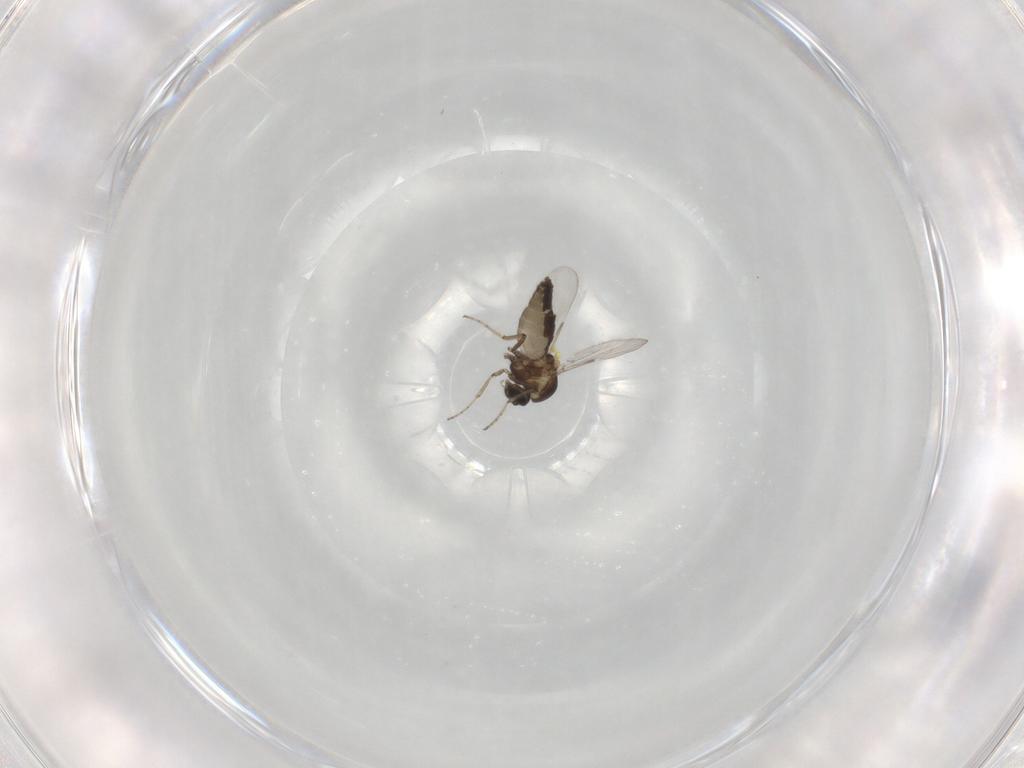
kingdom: Animalia
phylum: Arthropoda
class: Insecta
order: Diptera
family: Ceratopogonidae
